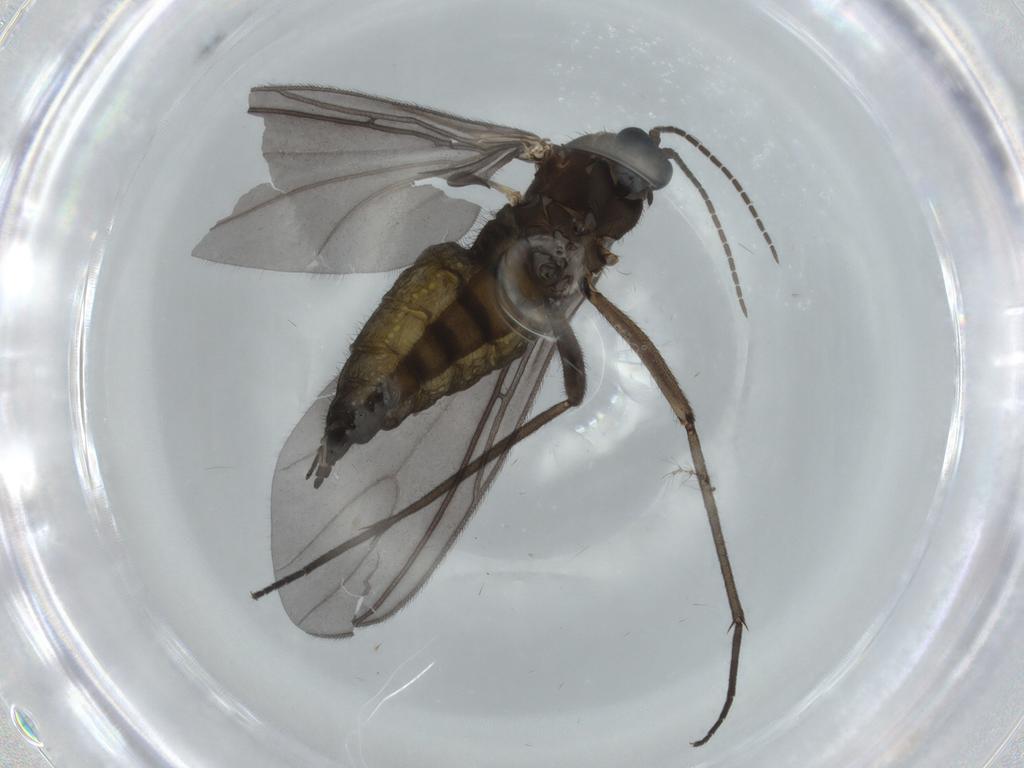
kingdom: Animalia
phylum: Arthropoda
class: Insecta
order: Diptera
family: Sciaridae
